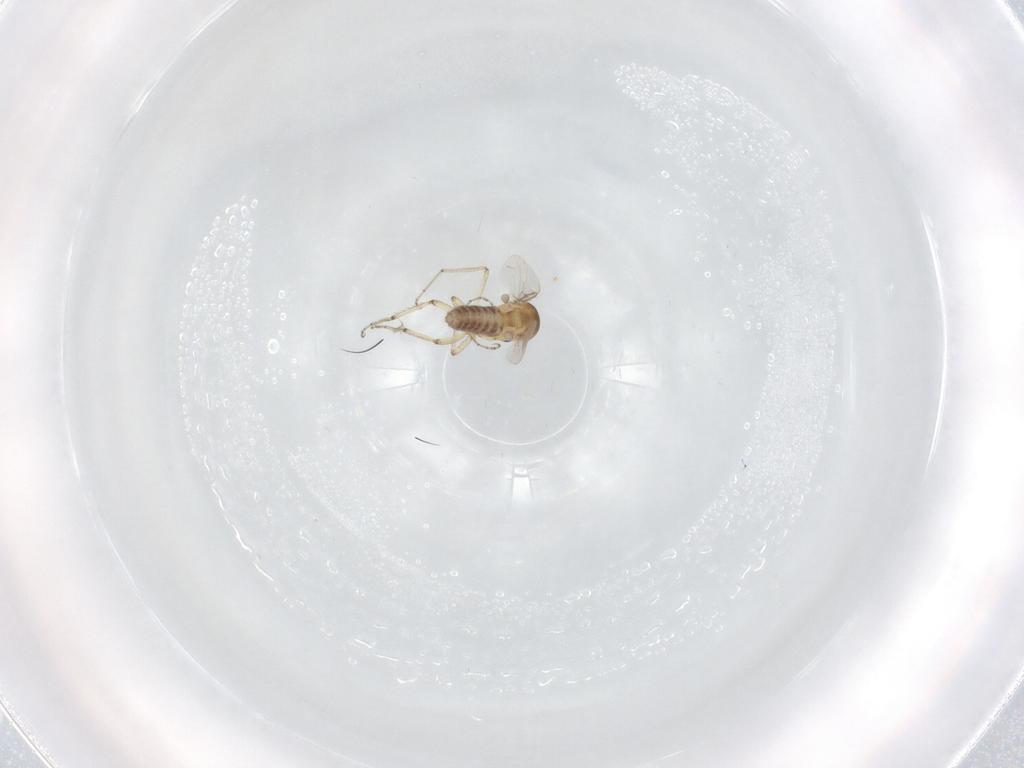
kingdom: Animalia
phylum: Arthropoda
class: Insecta
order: Diptera
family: Ceratopogonidae
